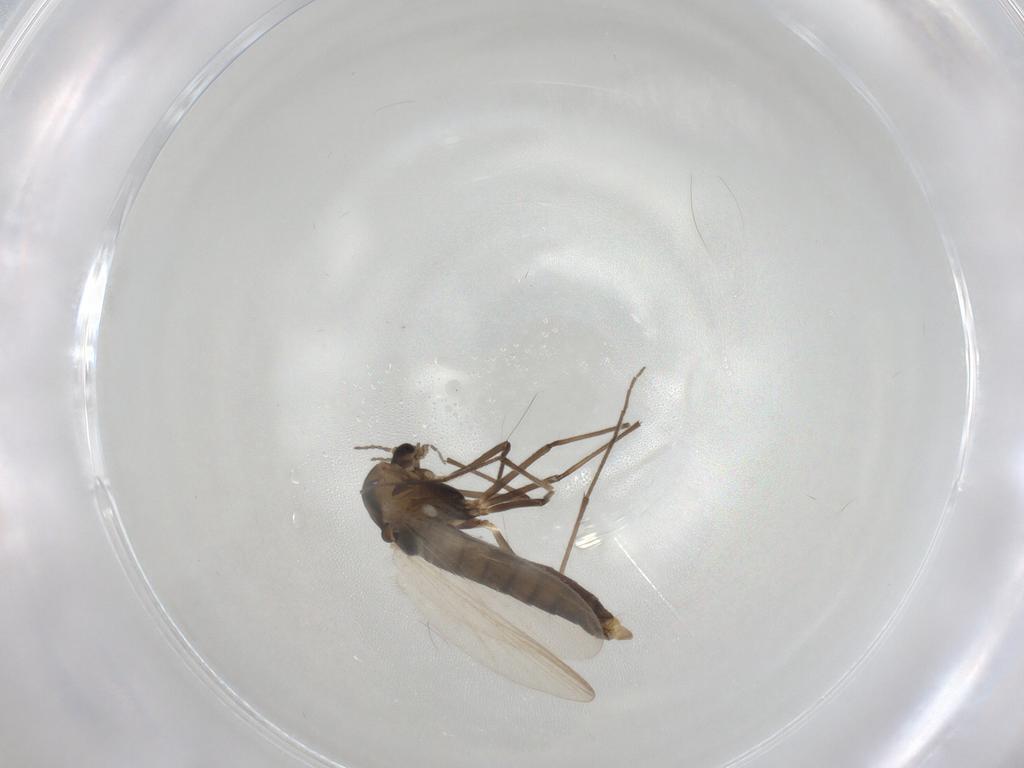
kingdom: Animalia
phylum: Arthropoda
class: Insecta
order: Diptera
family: Chironomidae
